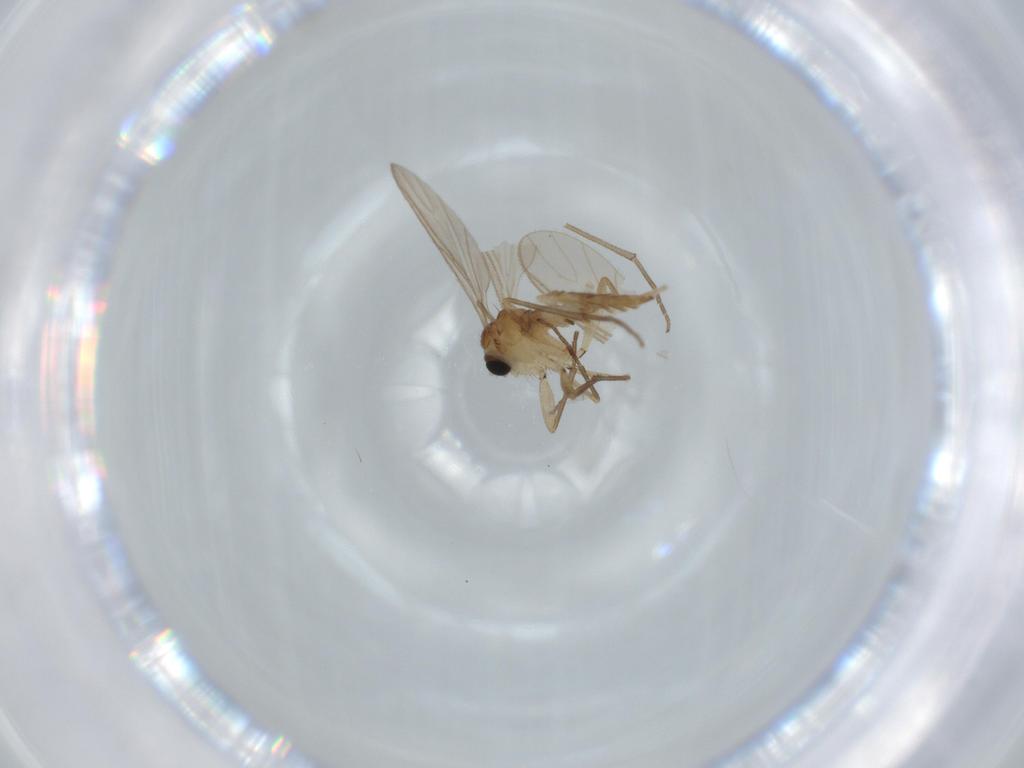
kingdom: Animalia
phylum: Arthropoda
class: Insecta
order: Diptera
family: Sciaridae
